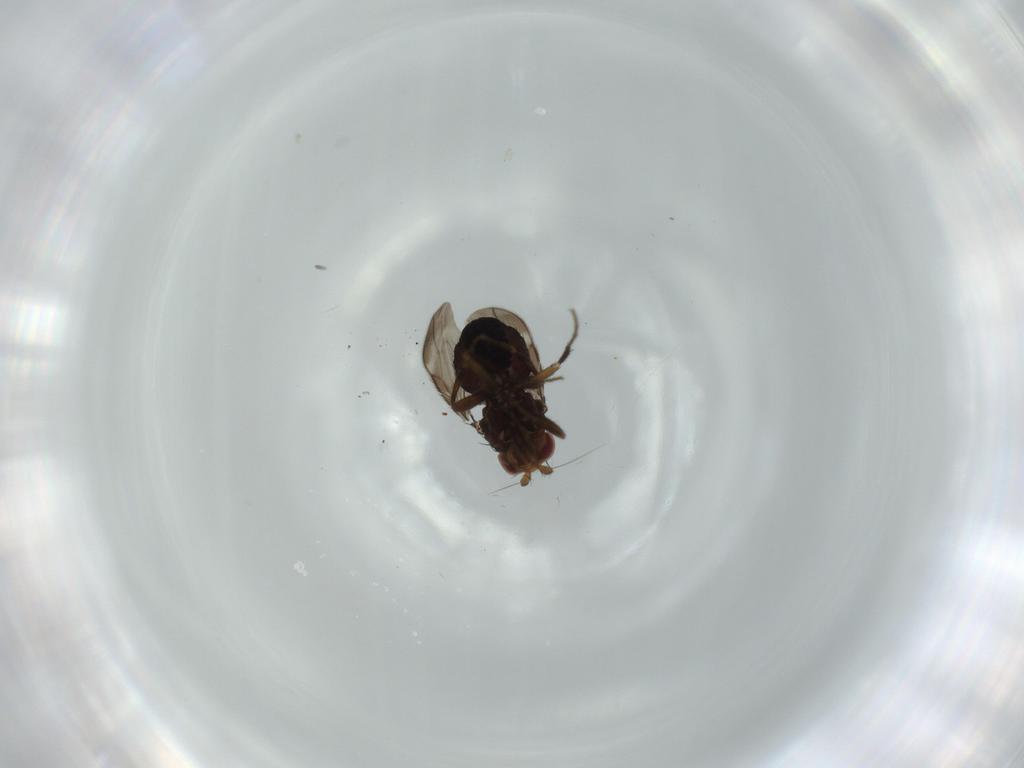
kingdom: Animalia
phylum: Arthropoda
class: Insecta
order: Diptera
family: Sphaeroceridae
